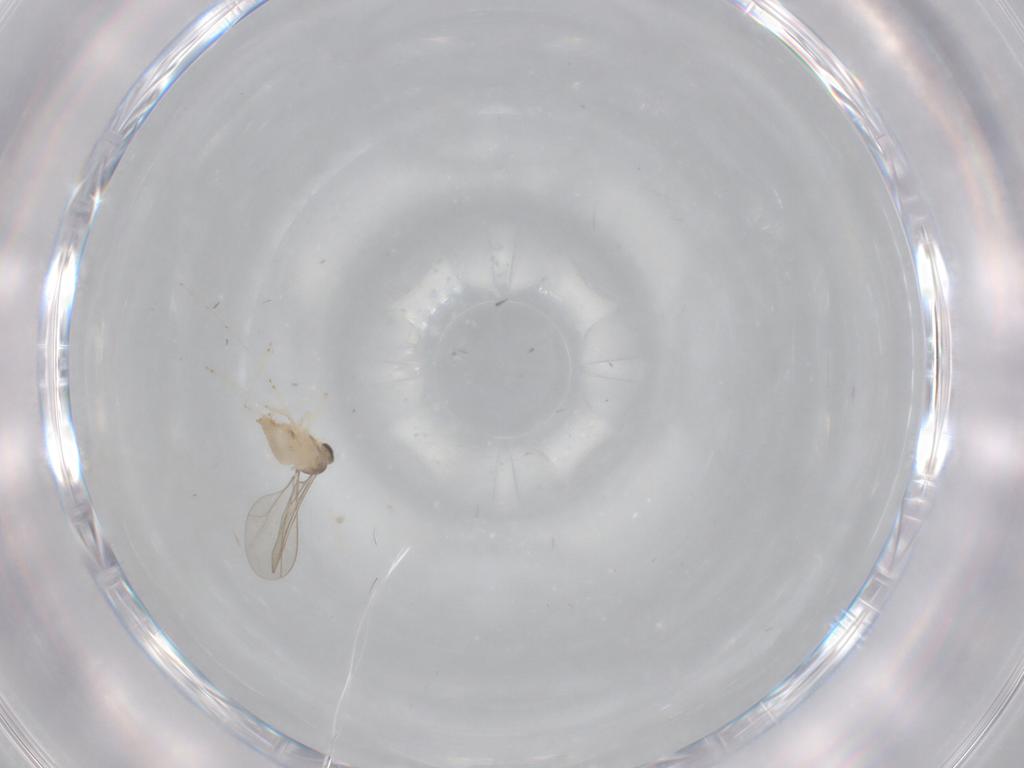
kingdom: Animalia
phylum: Arthropoda
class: Insecta
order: Diptera
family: Cecidomyiidae
